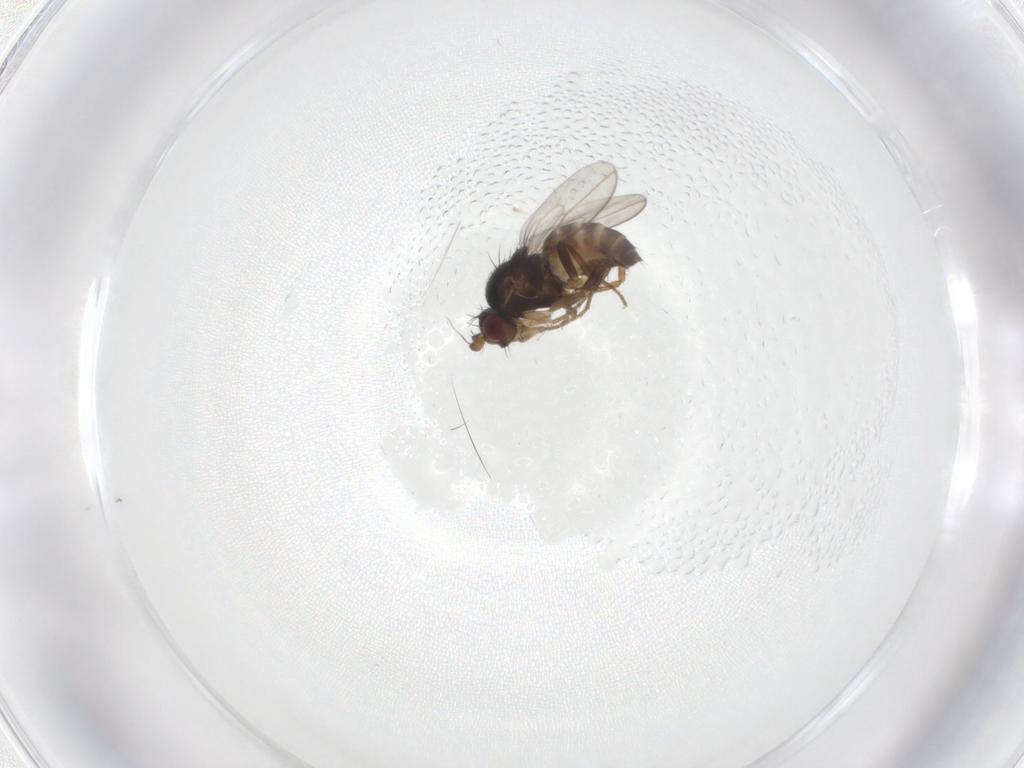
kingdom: Animalia
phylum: Arthropoda
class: Insecta
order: Diptera
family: Sphaeroceridae
